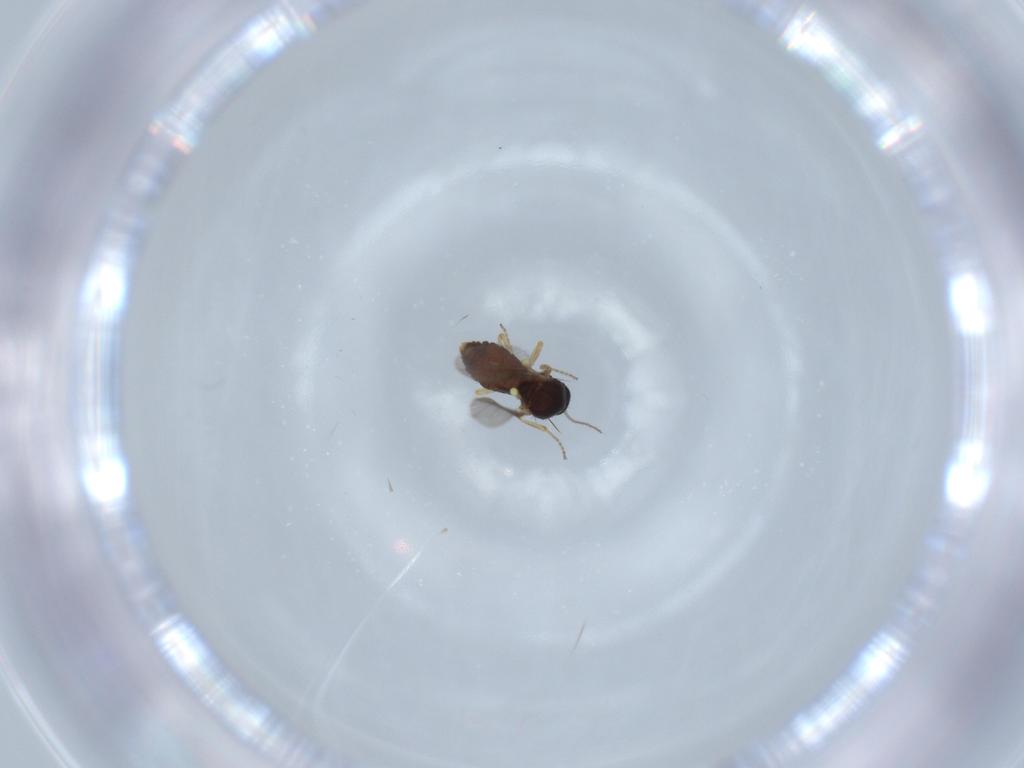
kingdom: Animalia
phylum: Arthropoda
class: Insecta
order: Diptera
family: Ceratopogonidae
